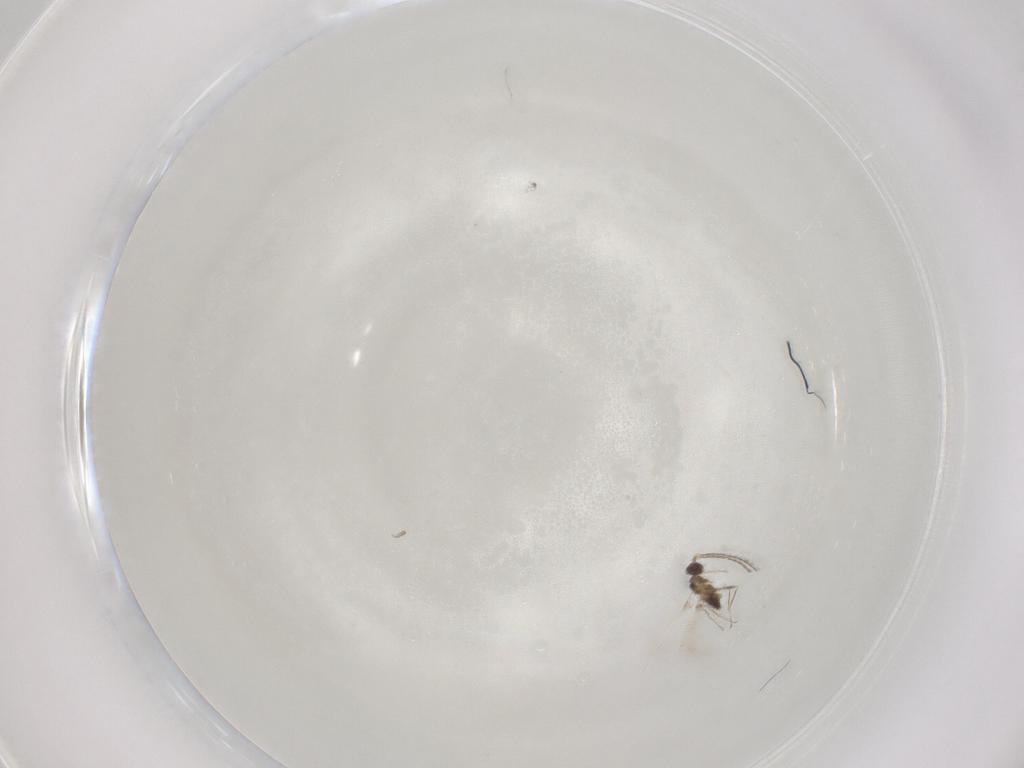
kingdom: Animalia
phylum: Arthropoda
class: Insecta
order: Hymenoptera
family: Scelionidae
